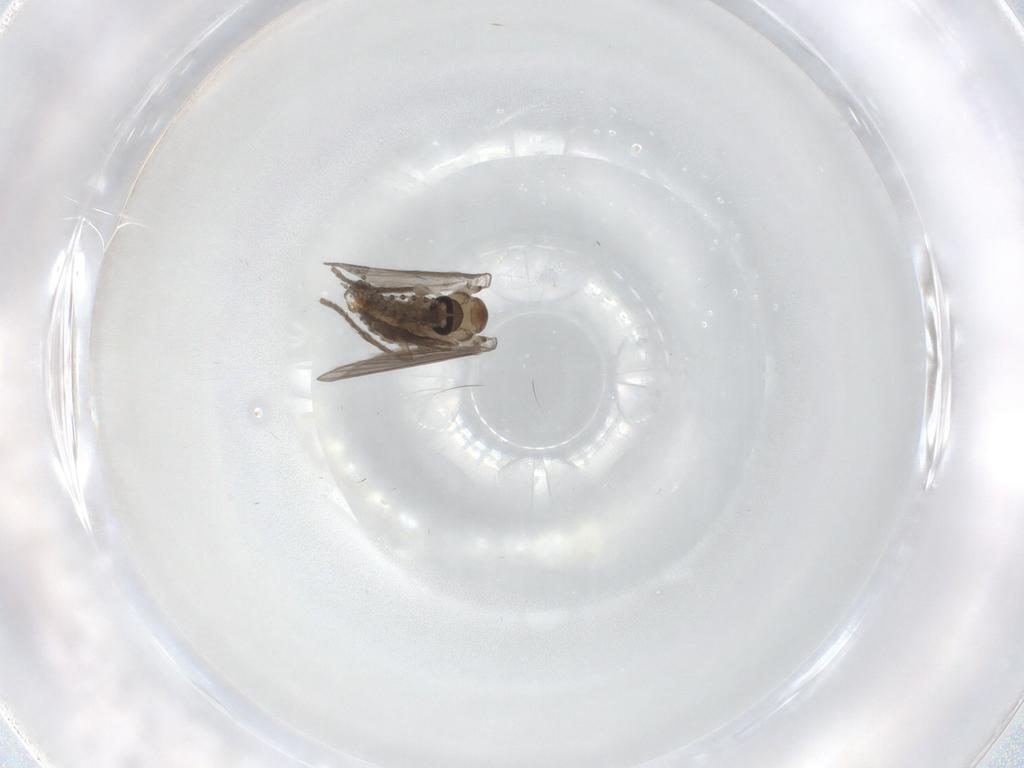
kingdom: Animalia
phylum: Arthropoda
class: Insecta
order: Diptera
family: Psychodidae
